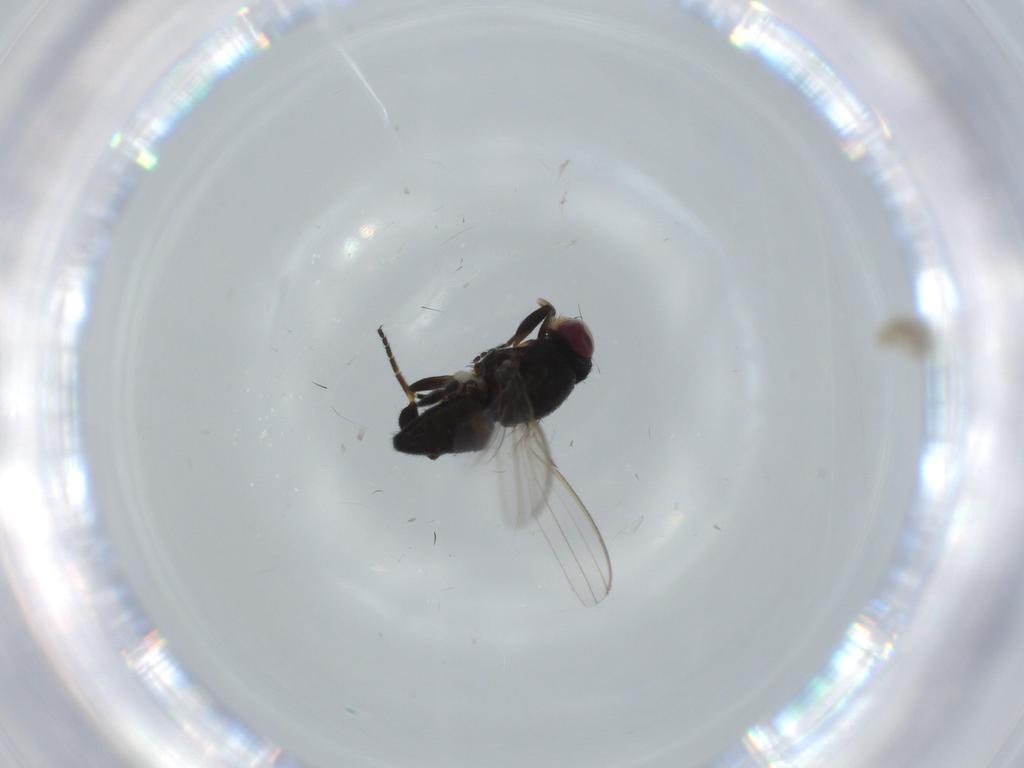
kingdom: Animalia
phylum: Arthropoda
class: Insecta
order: Diptera
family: Milichiidae
